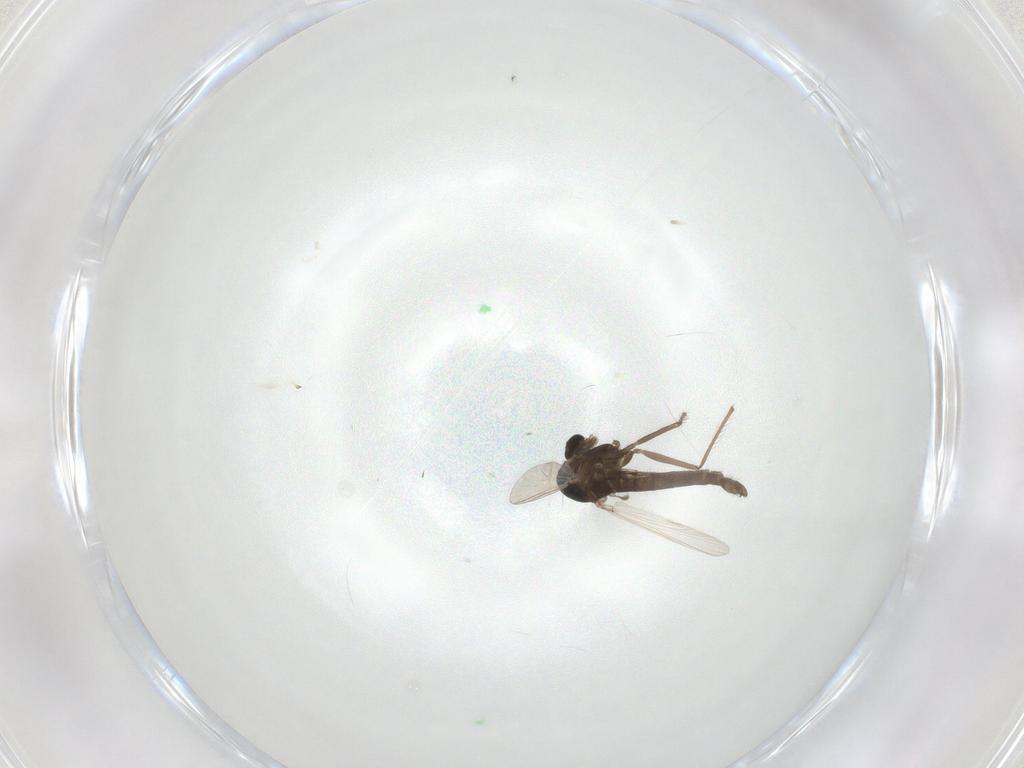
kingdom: Animalia
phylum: Arthropoda
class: Insecta
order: Diptera
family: Chironomidae
